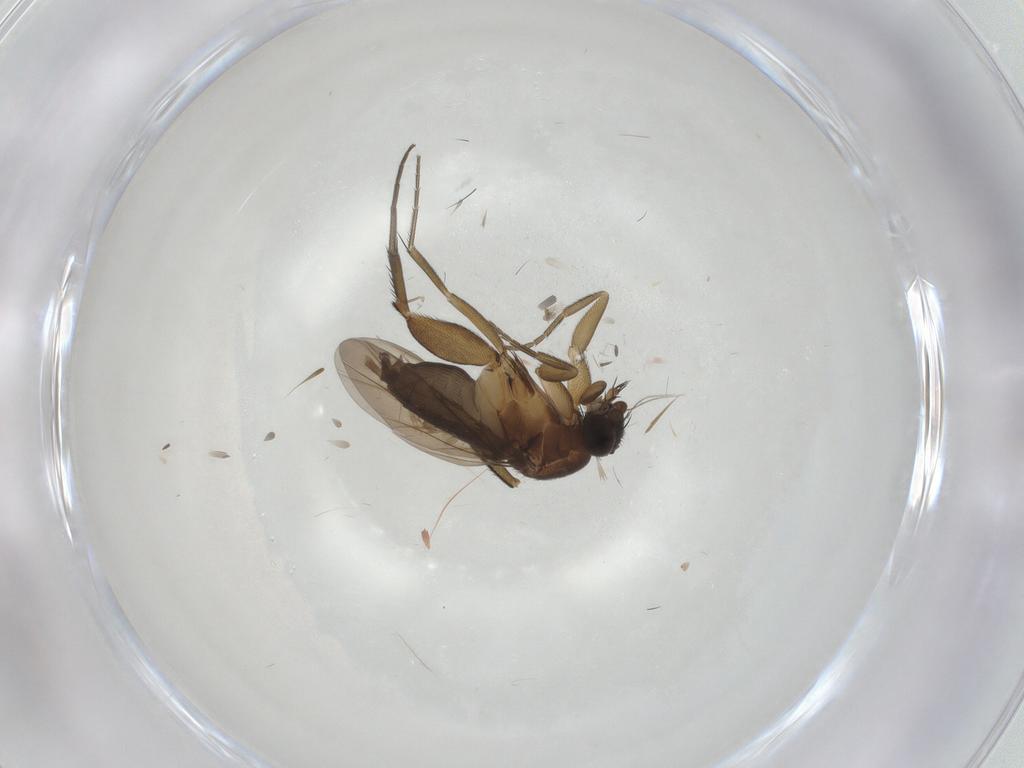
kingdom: Animalia
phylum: Arthropoda
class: Insecta
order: Diptera
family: Phoridae
